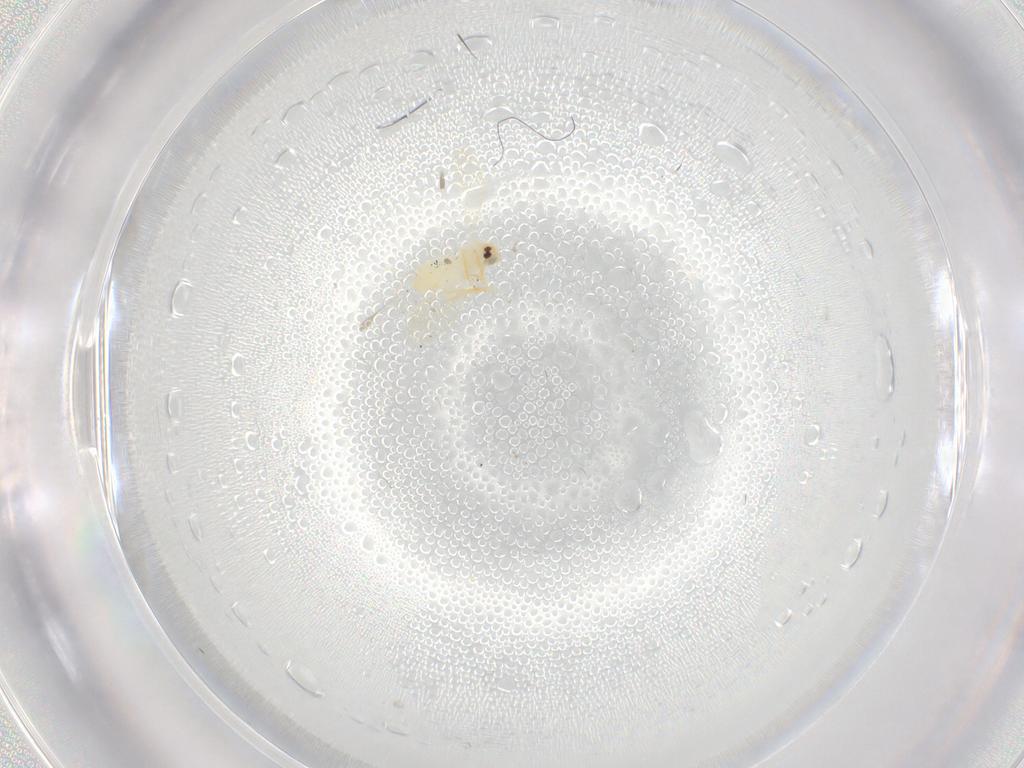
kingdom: Animalia
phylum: Arthropoda
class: Insecta
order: Hemiptera
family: Aleyrodidae
